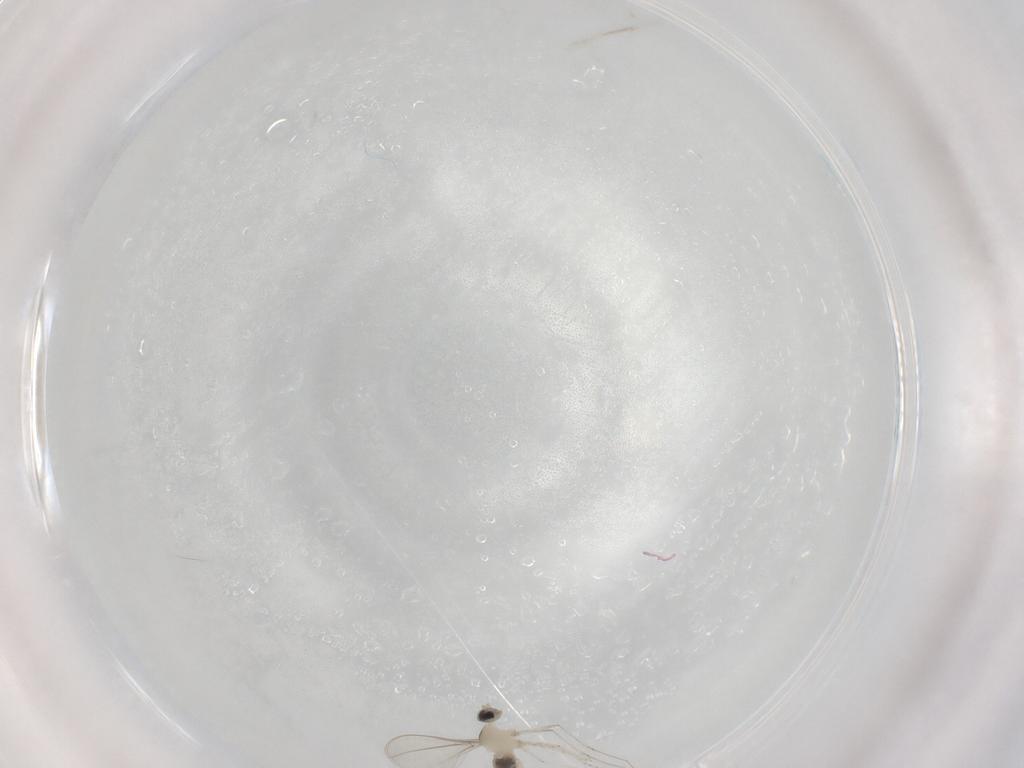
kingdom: Animalia
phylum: Arthropoda
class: Insecta
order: Diptera
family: Cecidomyiidae
